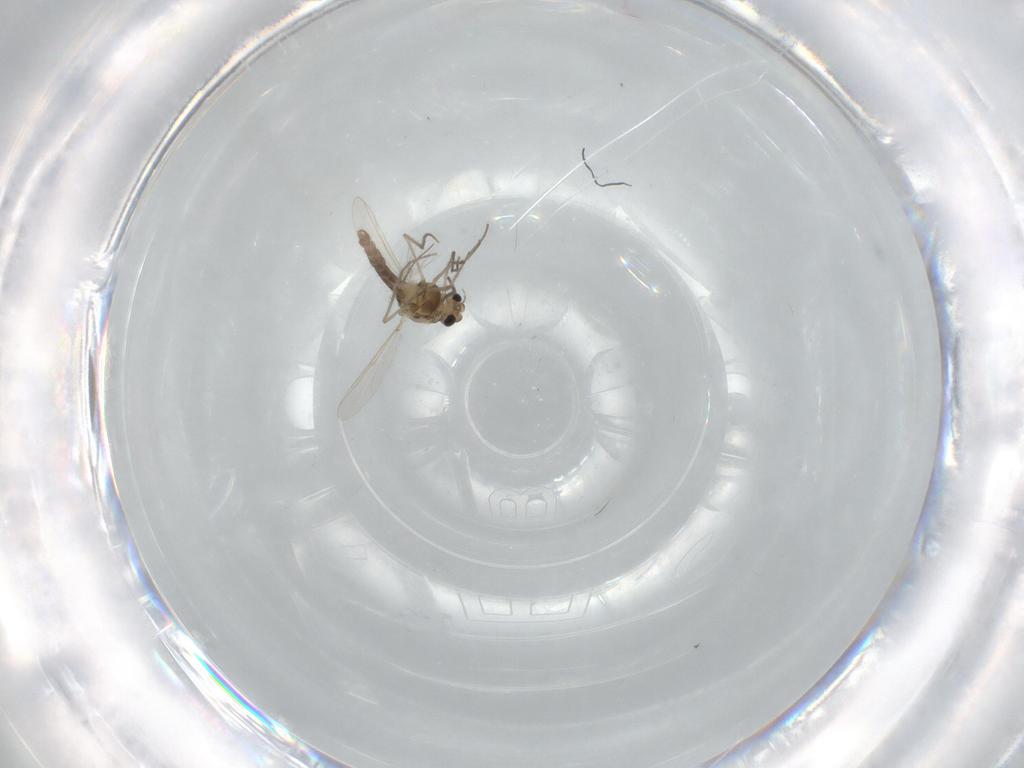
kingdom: Animalia
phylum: Arthropoda
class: Insecta
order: Diptera
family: Chironomidae
